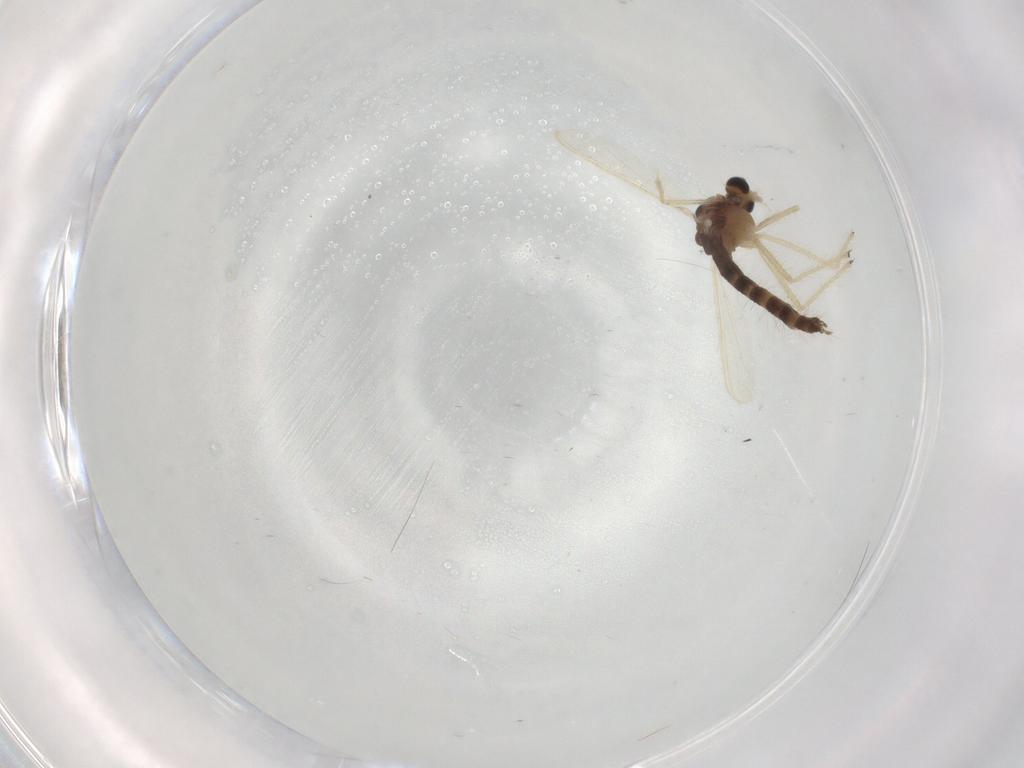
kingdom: Animalia
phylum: Arthropoda
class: Insecta
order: Diptera
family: Chironomidae
